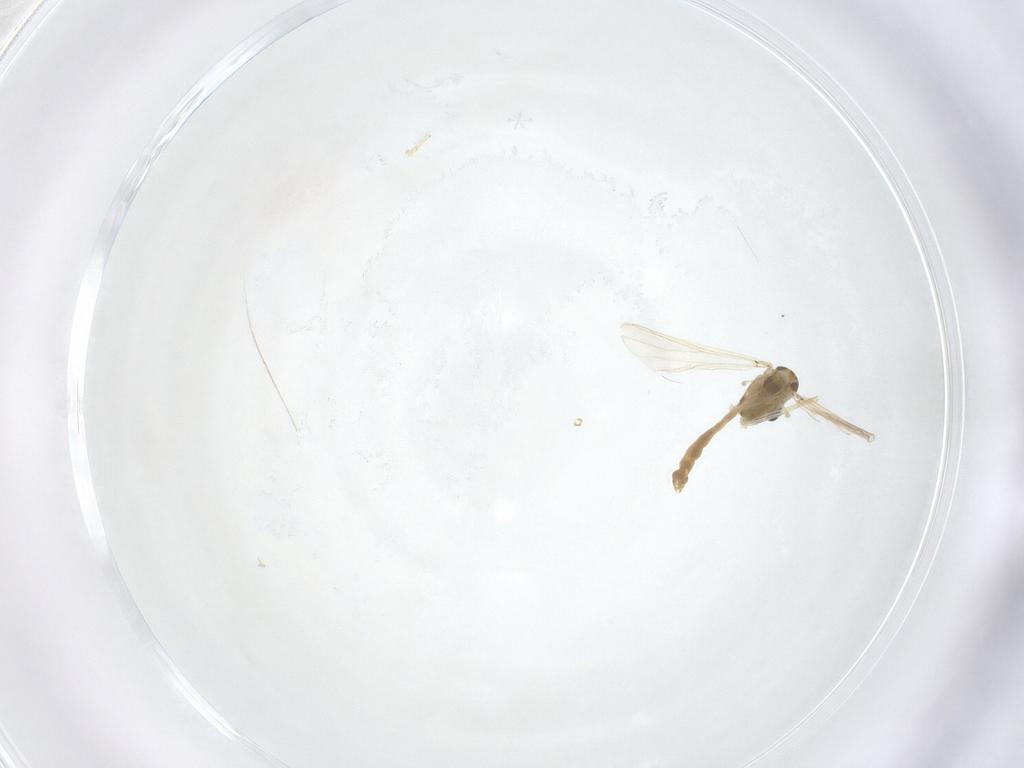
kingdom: Animalia
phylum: Arthropoda
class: Insecta
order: Diptera
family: Chironomidae
